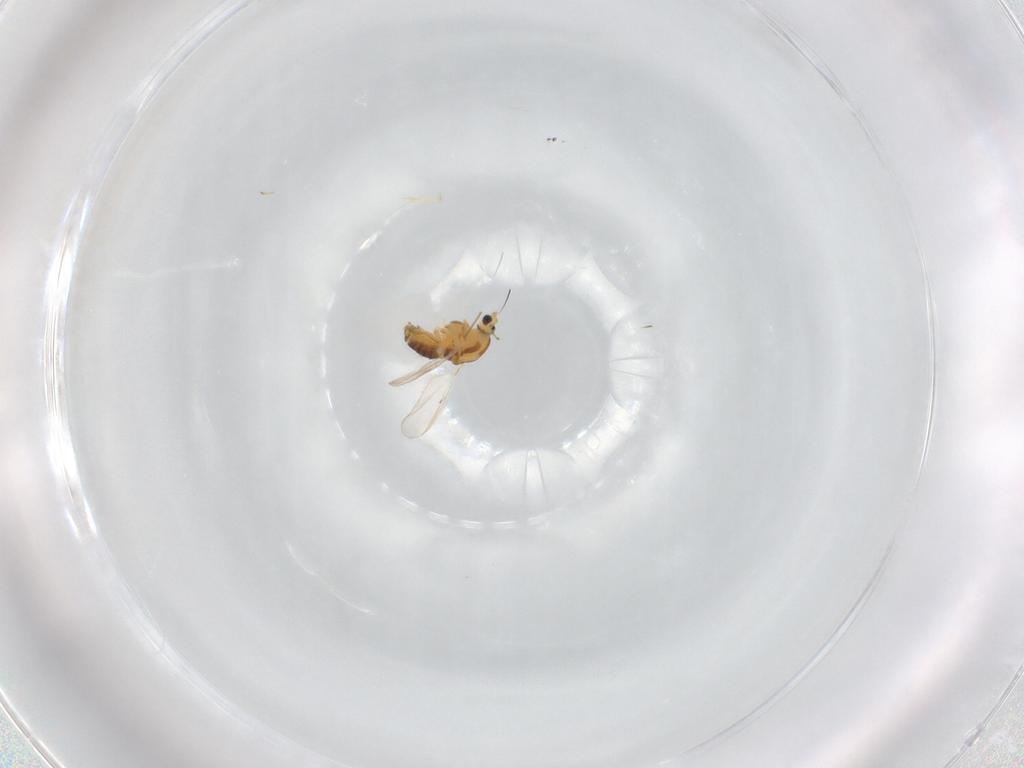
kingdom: Animalia
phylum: Arthropoda
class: Insecta
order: Diptera
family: Chironomidae
